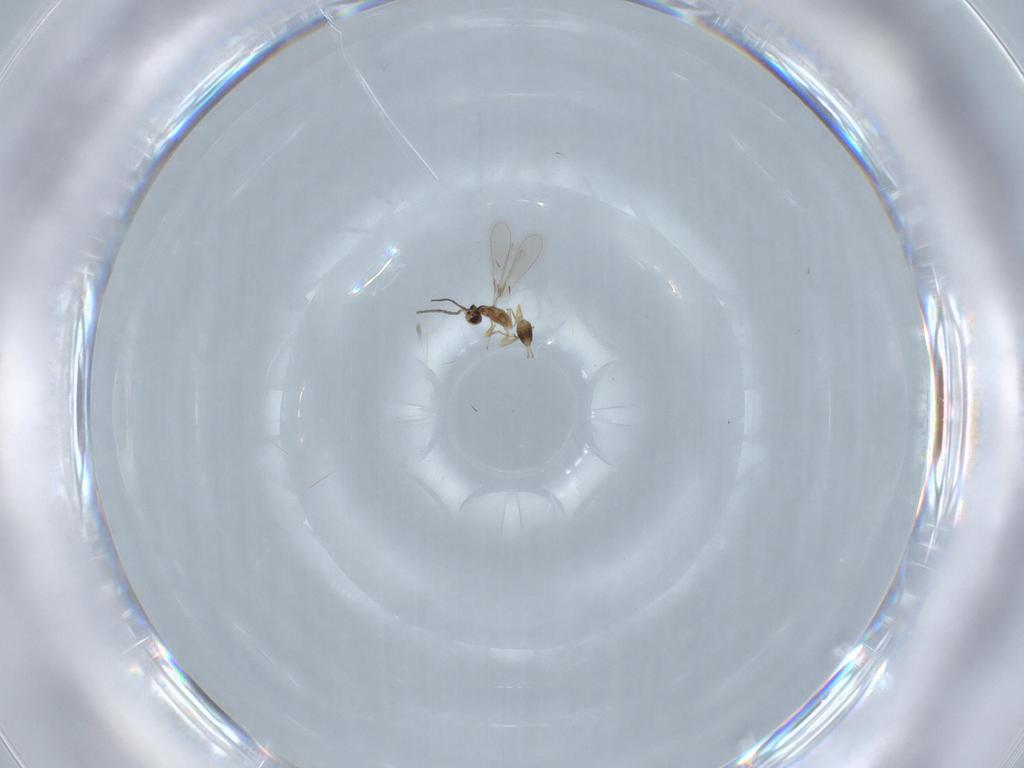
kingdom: Animalia
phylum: Arthropoda
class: Insecta
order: Hymenoptera
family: Mymaridae
